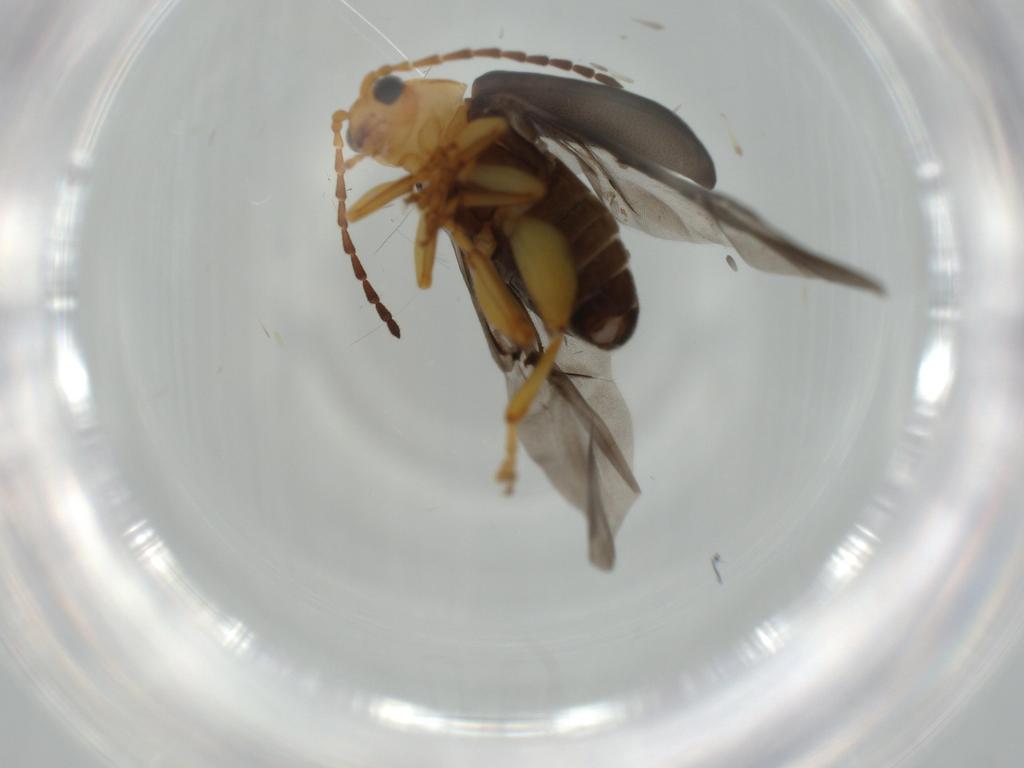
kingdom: Animalia
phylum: Arthropoda
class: Insecta
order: Coleoptera
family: Chrysomelidae
